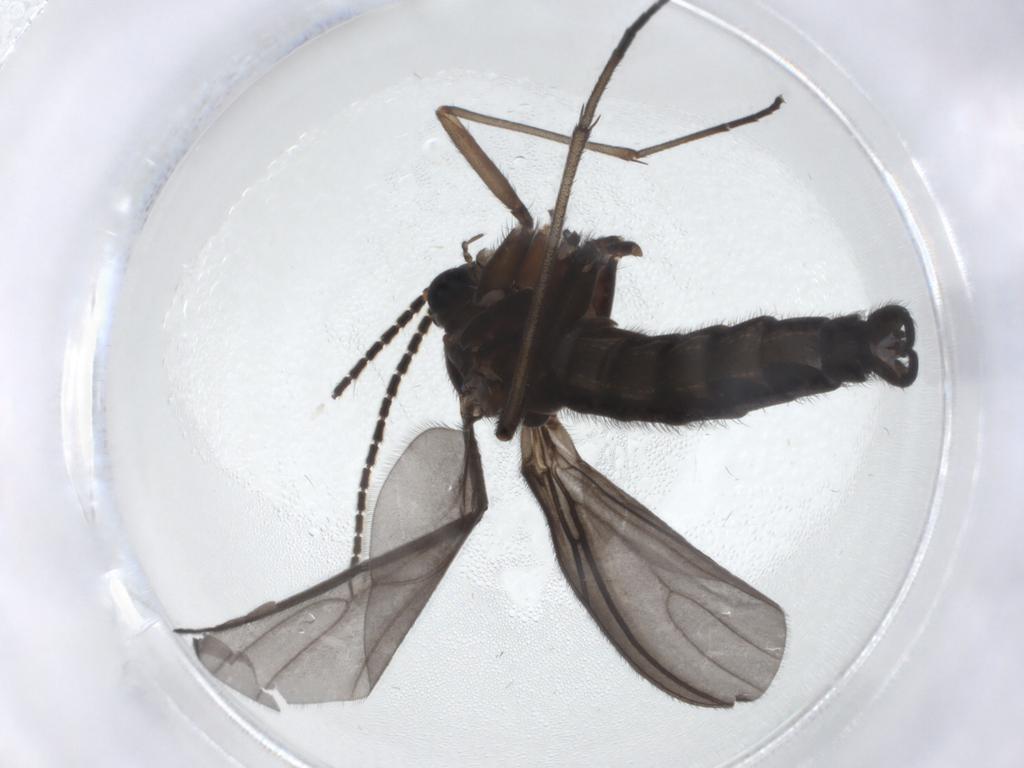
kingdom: Animalia
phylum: Arthropoda
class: Insecta
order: Diptera
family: Sciaridae
